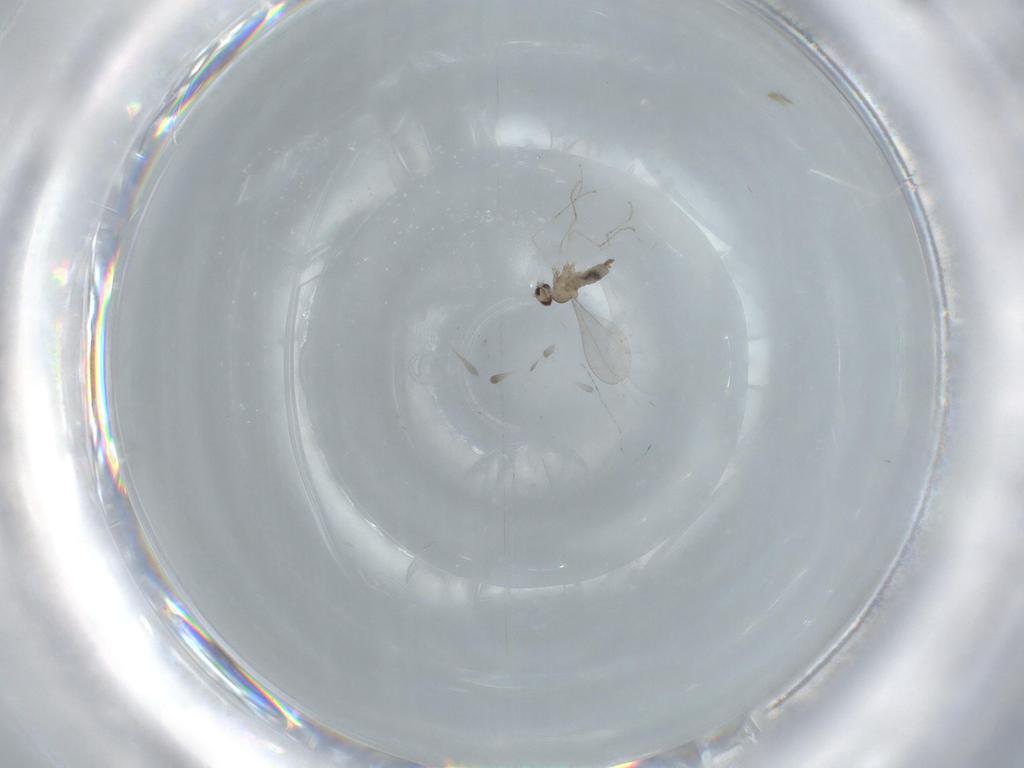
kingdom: Animalia
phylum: Arthropoda
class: Insecta
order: Diptera
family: Cecidomyiidae
